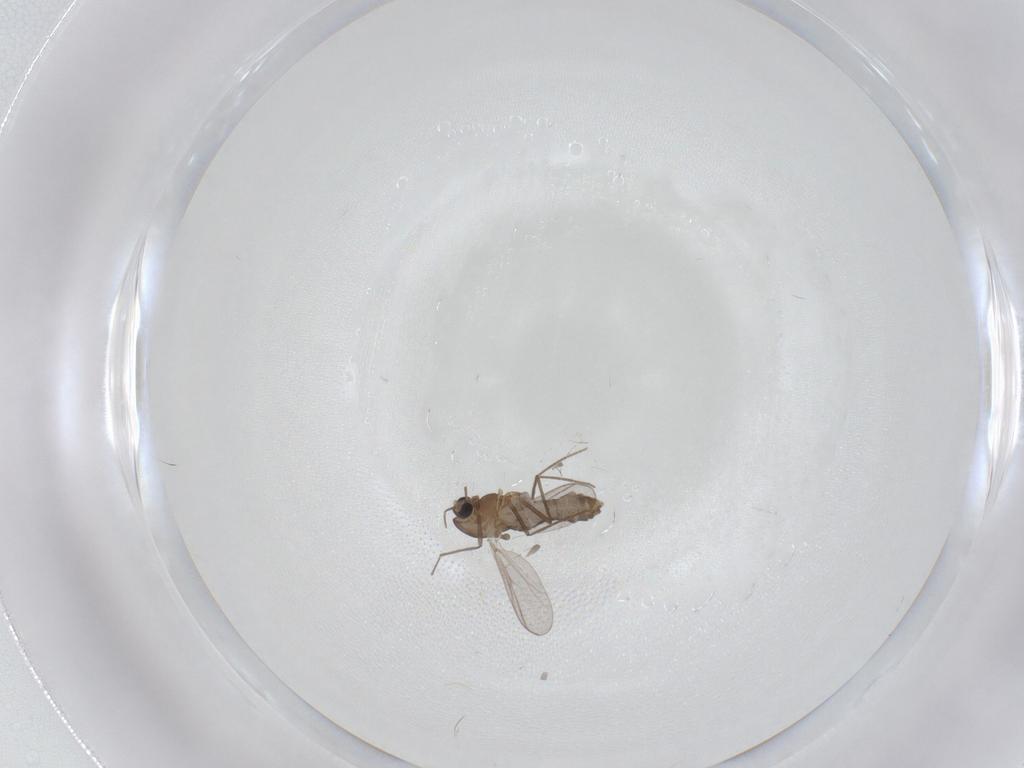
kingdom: Animalia
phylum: Arthropoda
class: Insecta
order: Diptera
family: Chironomidae
